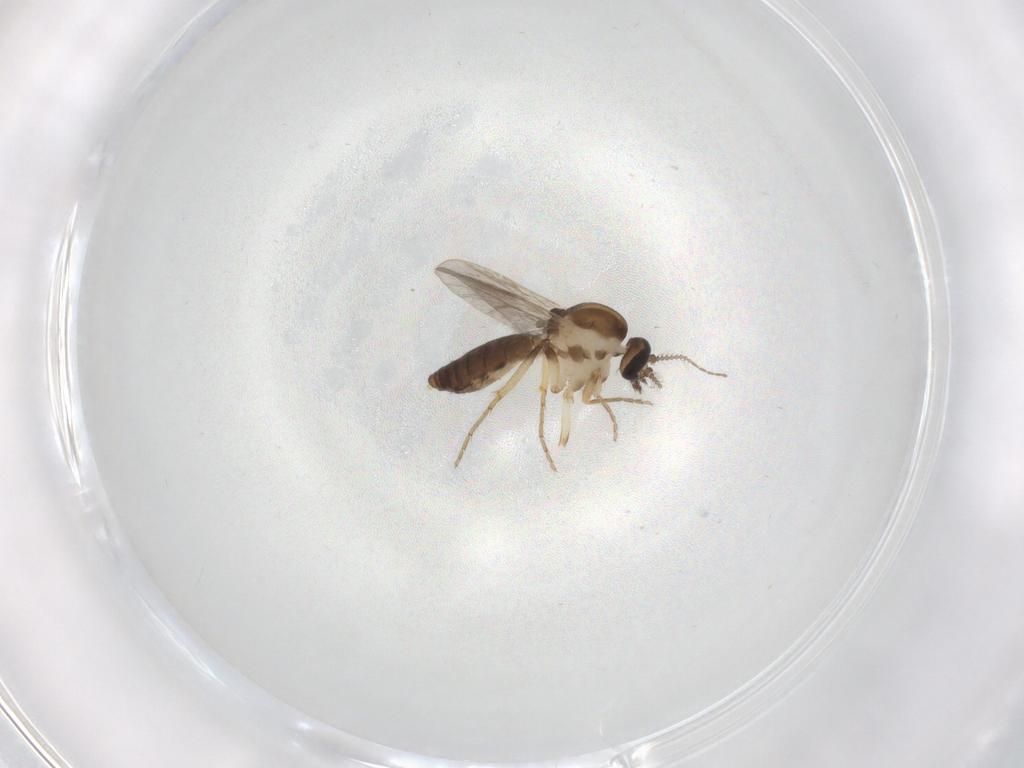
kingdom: Animalia
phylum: Arthropoda
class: Insecta
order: Diptera
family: Ceratopogonidae
